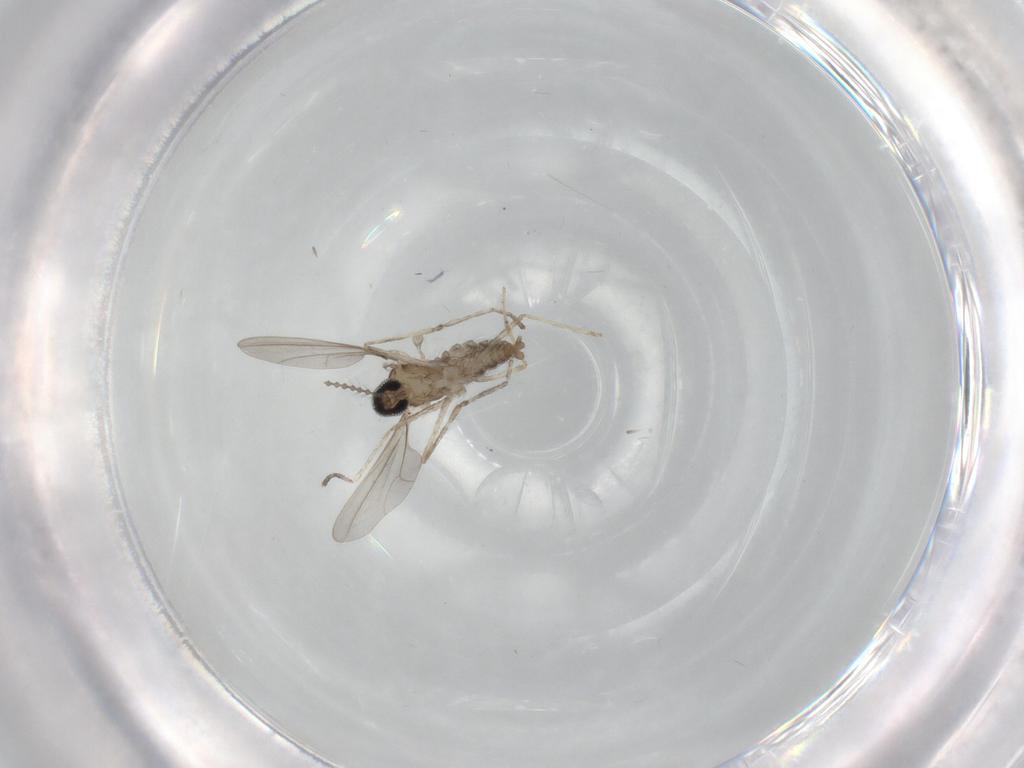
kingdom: Animalia
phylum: Arthropoda
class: Insecta
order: Diptera
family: Cecidomyiidae
